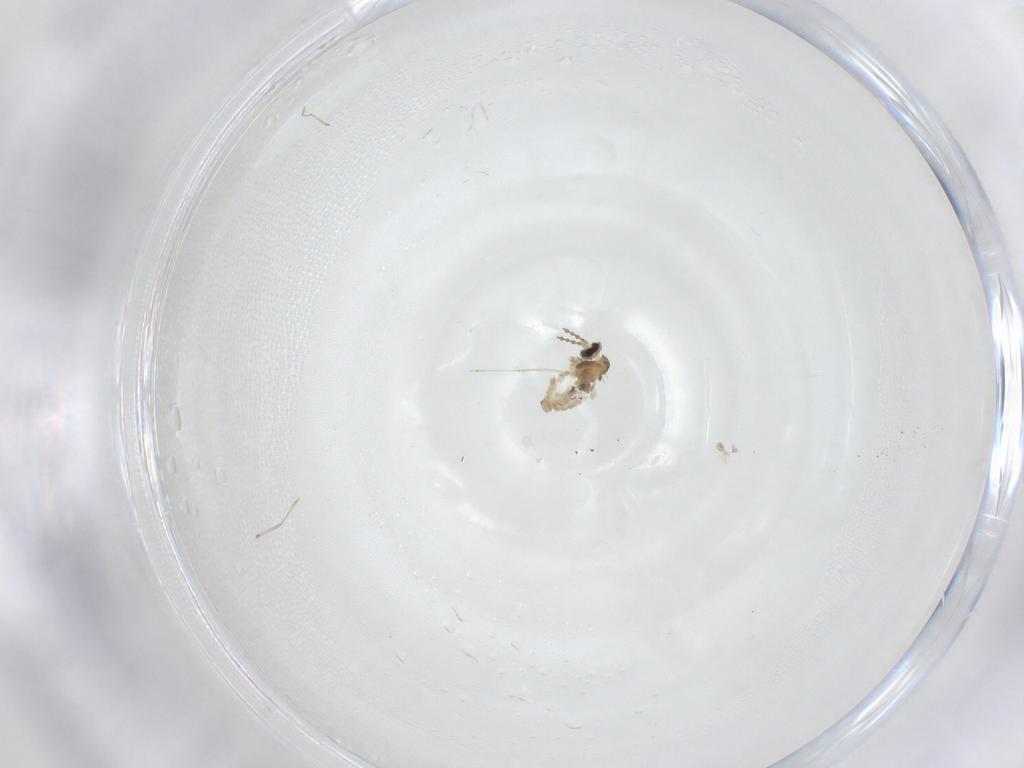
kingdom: Animalia
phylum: Arthropoda
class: Insecta
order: Diptera
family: Cecidomyiidae
